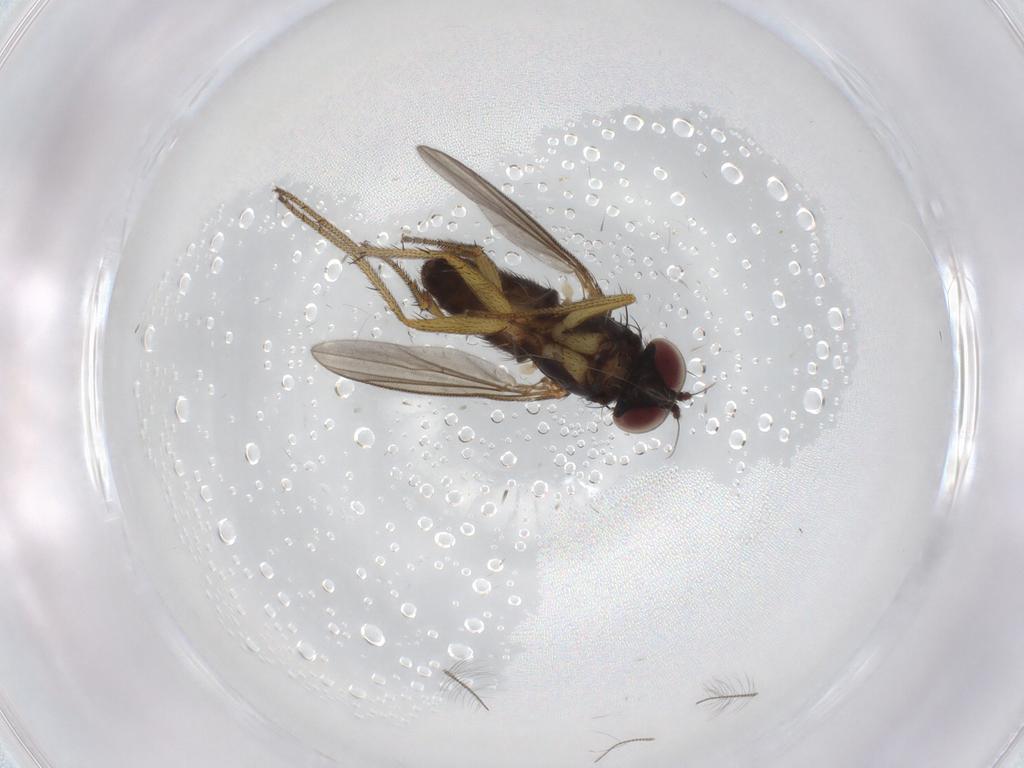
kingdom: Animalia
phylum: Arthropoda
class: Insecta
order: Diptera
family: Chironomidae
